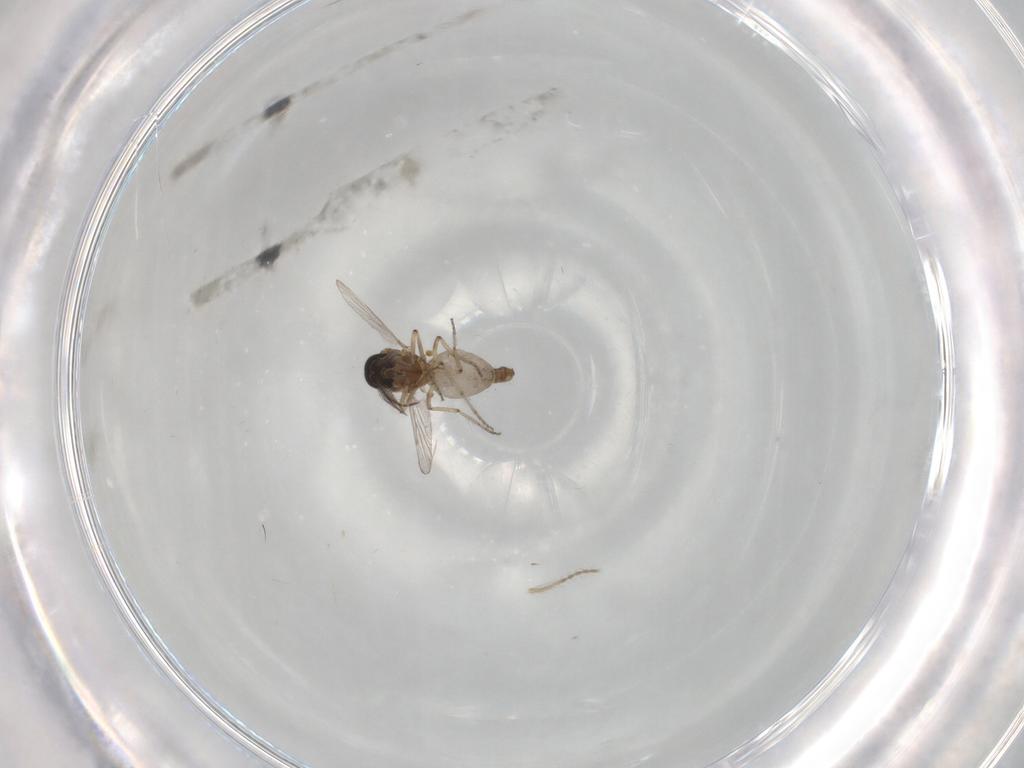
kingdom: Animalia
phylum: Arthropoda
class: Insecta
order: Diptera
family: Ceratopogonidae
